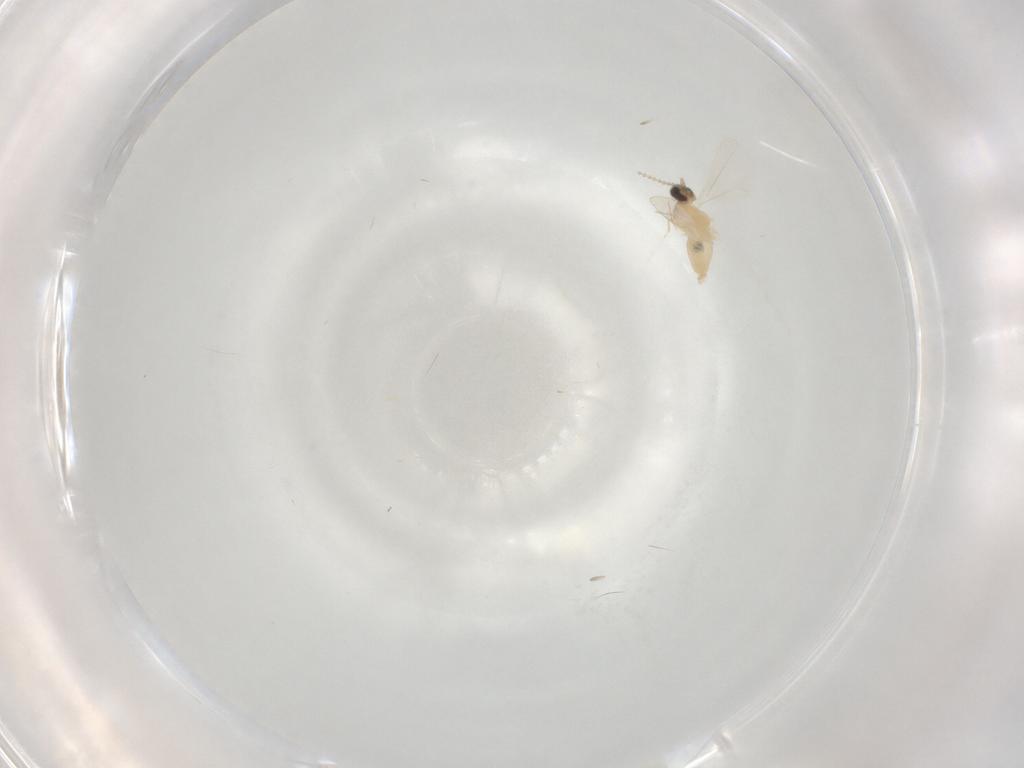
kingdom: Animalia
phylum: Arthropoda
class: Insecta
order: Diptera
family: Cecidomyiidae
